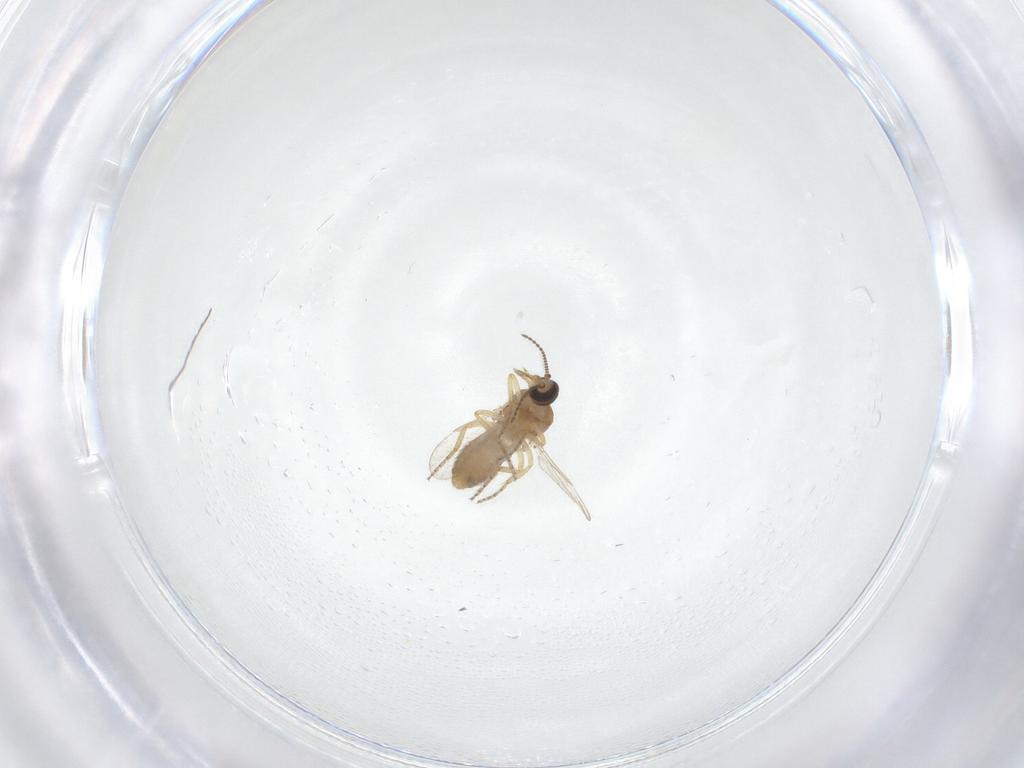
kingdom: Animalia
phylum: Arthropoda
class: Insecta
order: Diptera
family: Ceratopogonidae
